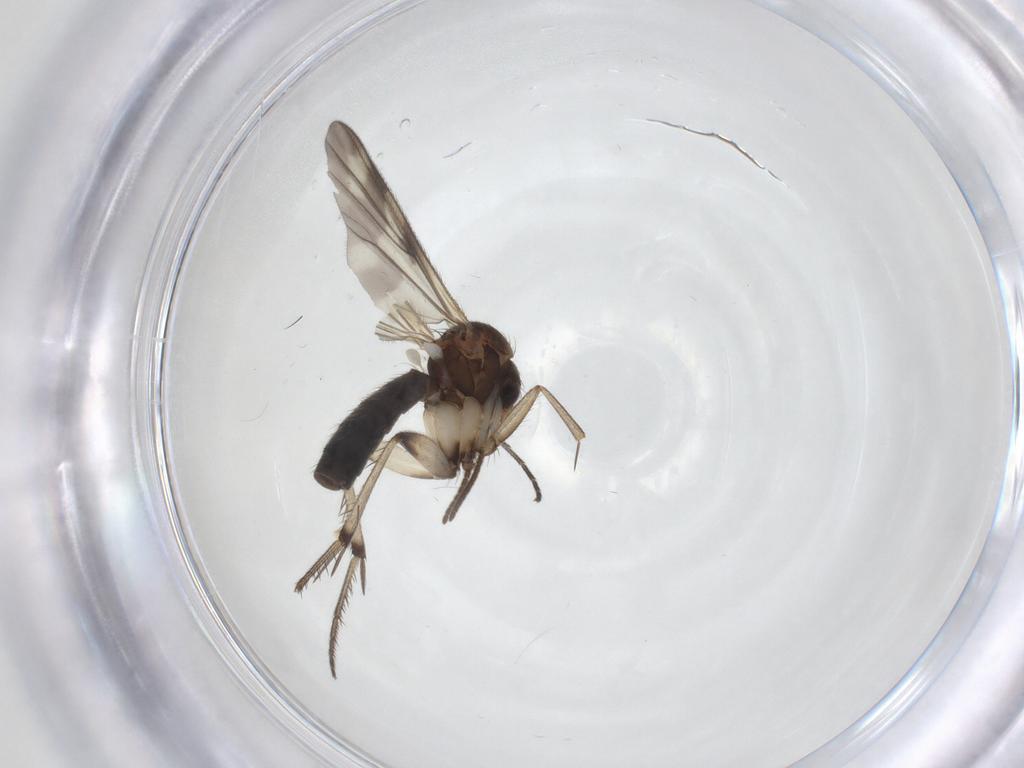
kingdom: Animalia
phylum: Arthropoda
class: Insecta
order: Diptera
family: Mycetophilidae
